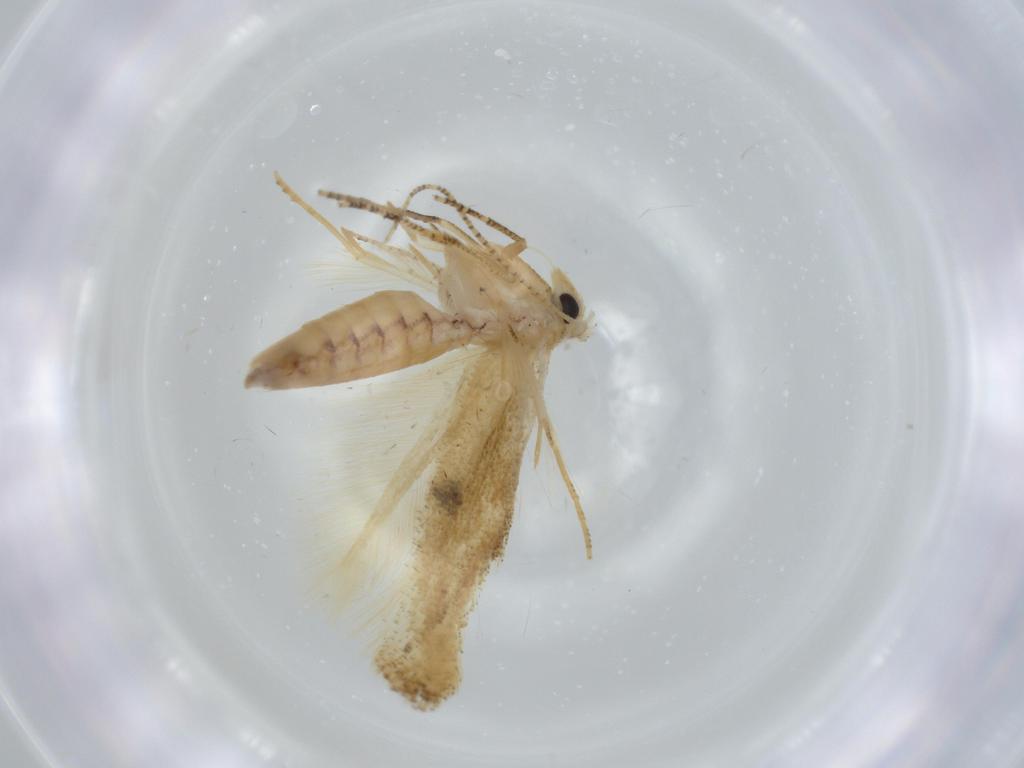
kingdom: Animalia
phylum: Arthropoda
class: Insecta
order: Lepidoptera
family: Bucculatricidae
